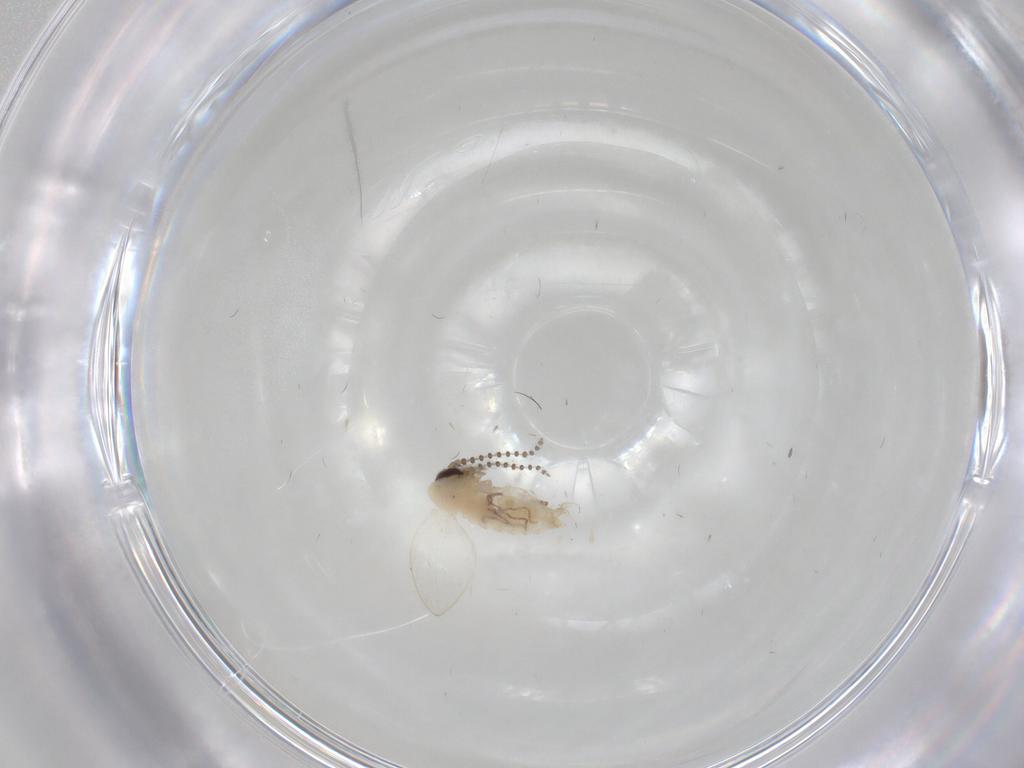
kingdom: Animalia
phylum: Arthropoda
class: Insecta
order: Diptera
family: Psychodidae
